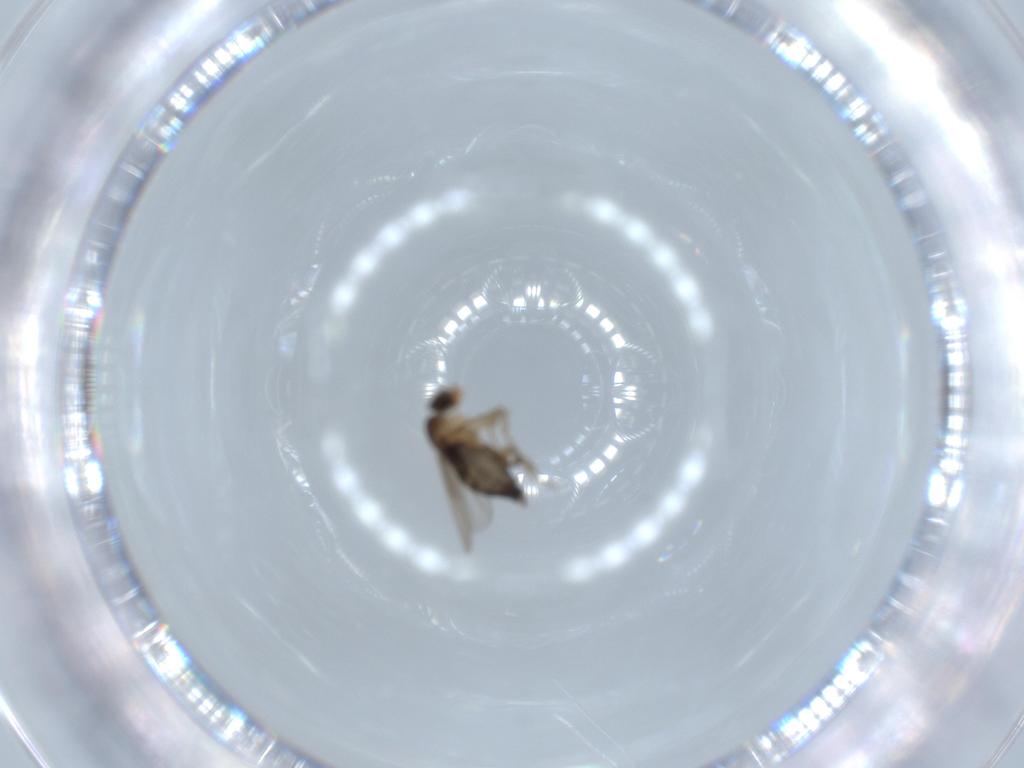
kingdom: Animalia
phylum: Arthropoda
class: Insecta
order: Diptera
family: Phoridae
